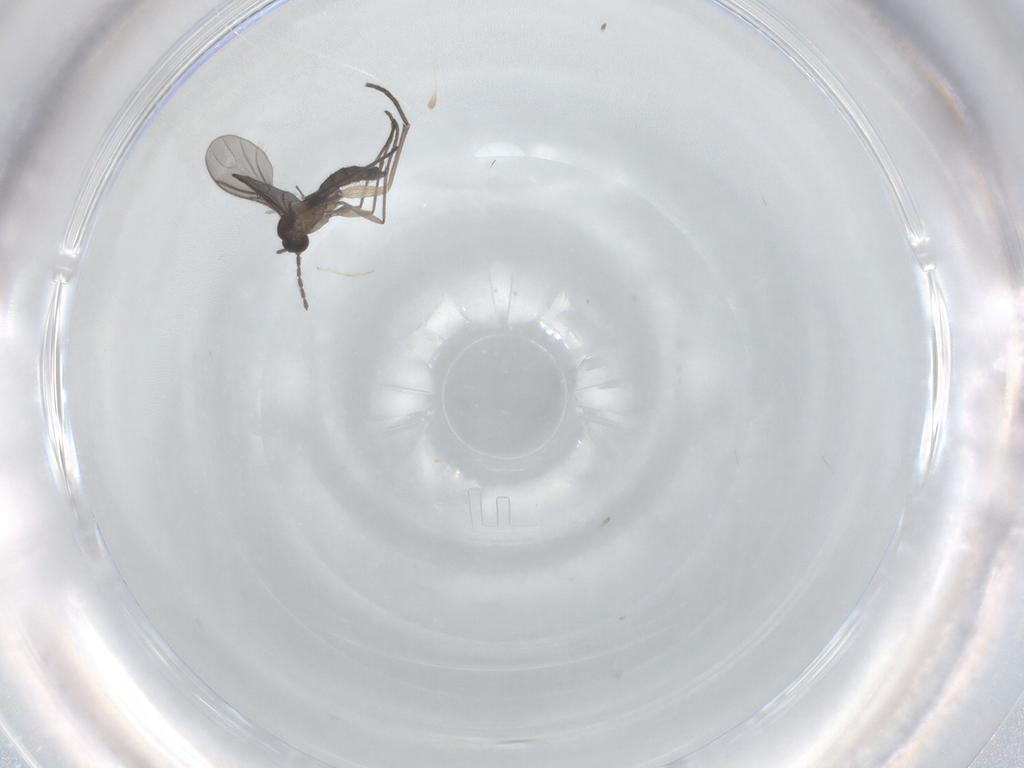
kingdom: Animalia
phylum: Arthropoda
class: Insecta
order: Diptera
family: Sciaridae
